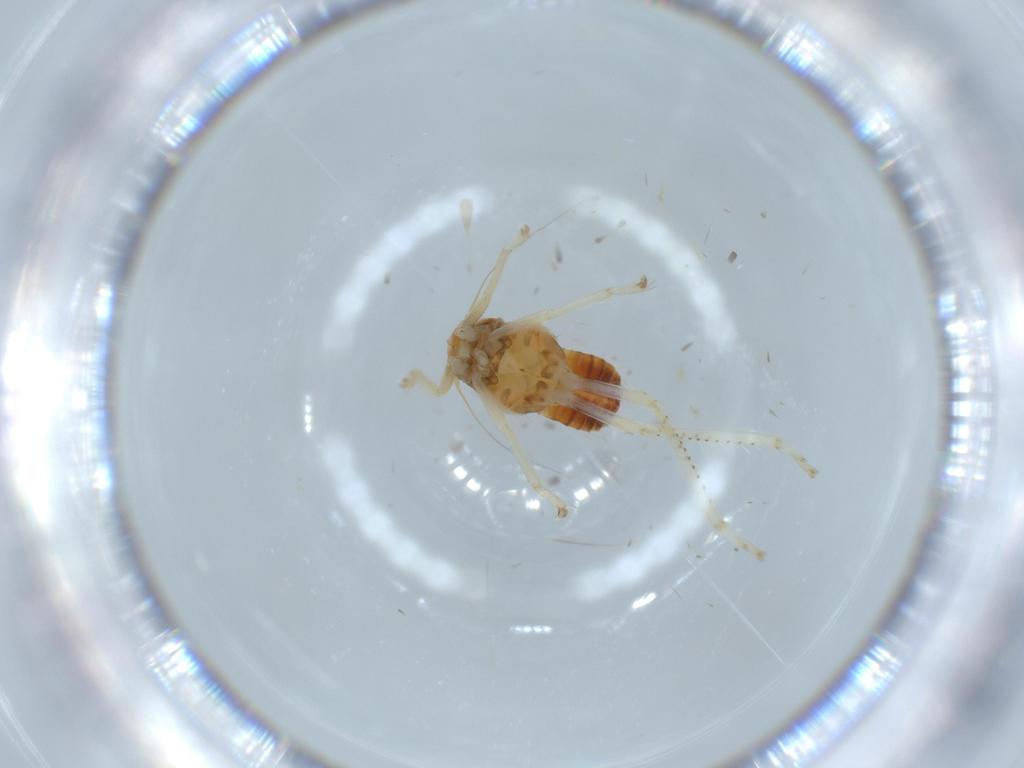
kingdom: Animalia
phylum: Arthropoda
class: Insecta
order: Hemiptera
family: Cicadellidae
